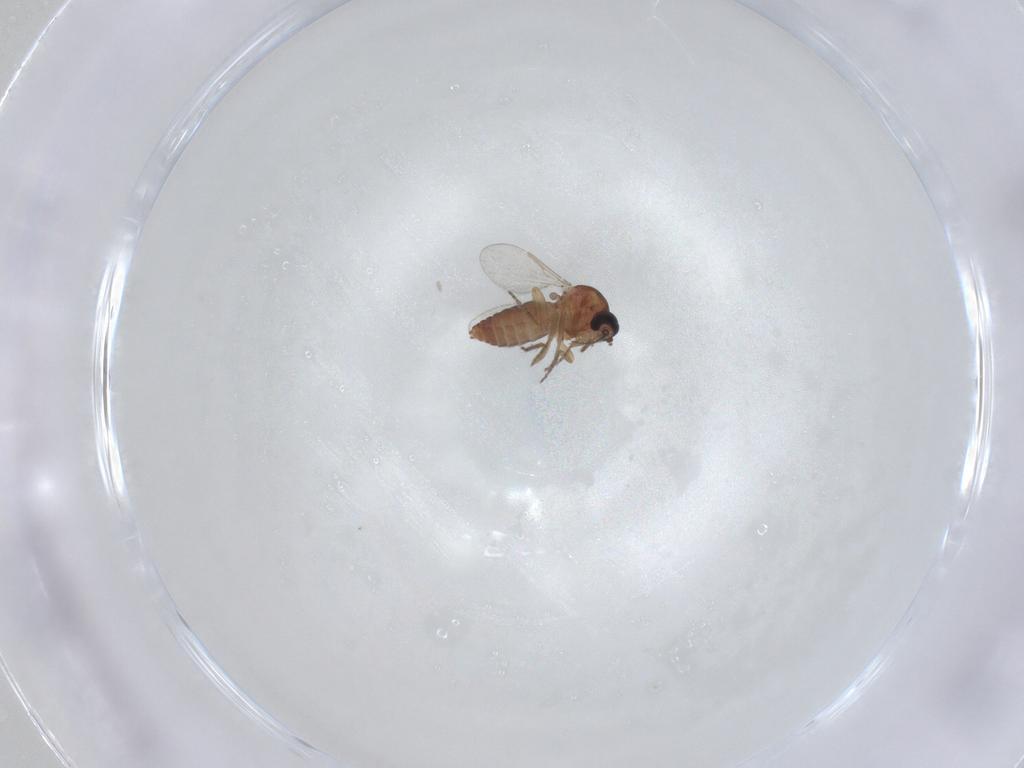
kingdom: Animalia
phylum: Arthropoda
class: Insecta
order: Diptera
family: Ceratopogonidae
